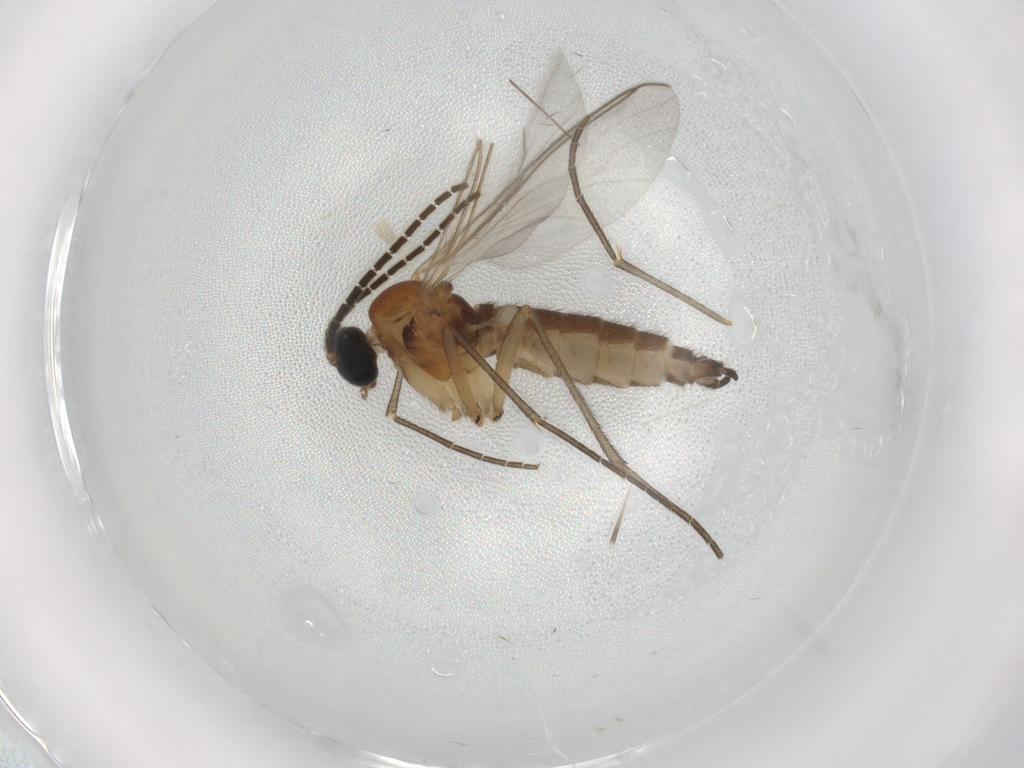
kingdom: Animalia
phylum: Arthropoda
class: Insecta
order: Diptera
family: Sciaridae
